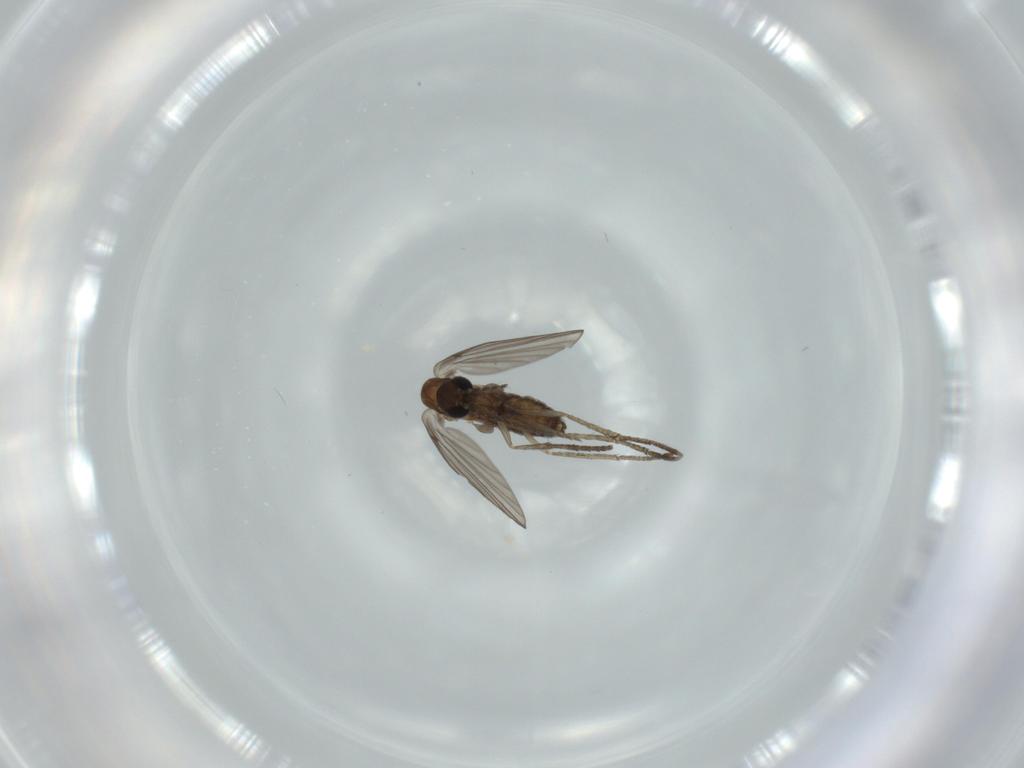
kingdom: Animalia
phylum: Arthropoda
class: Insecta
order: Diptera
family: Psychodidae
